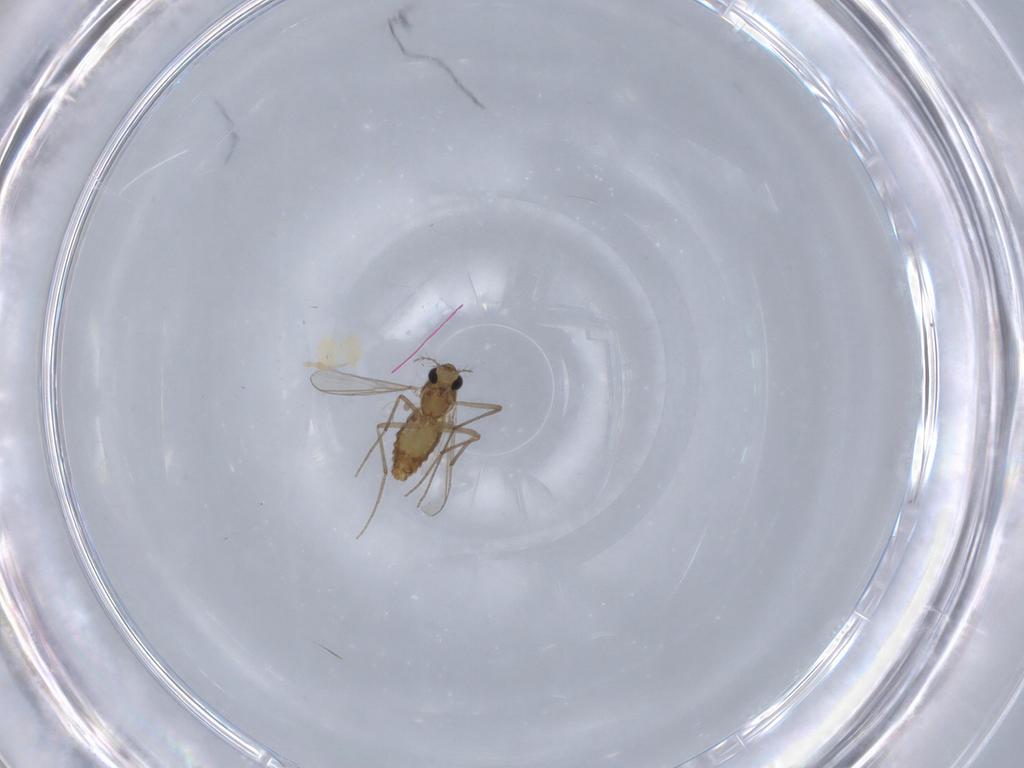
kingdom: Animalia
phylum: Arthropoda
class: Insecta
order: Diptera
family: Chironomidae
